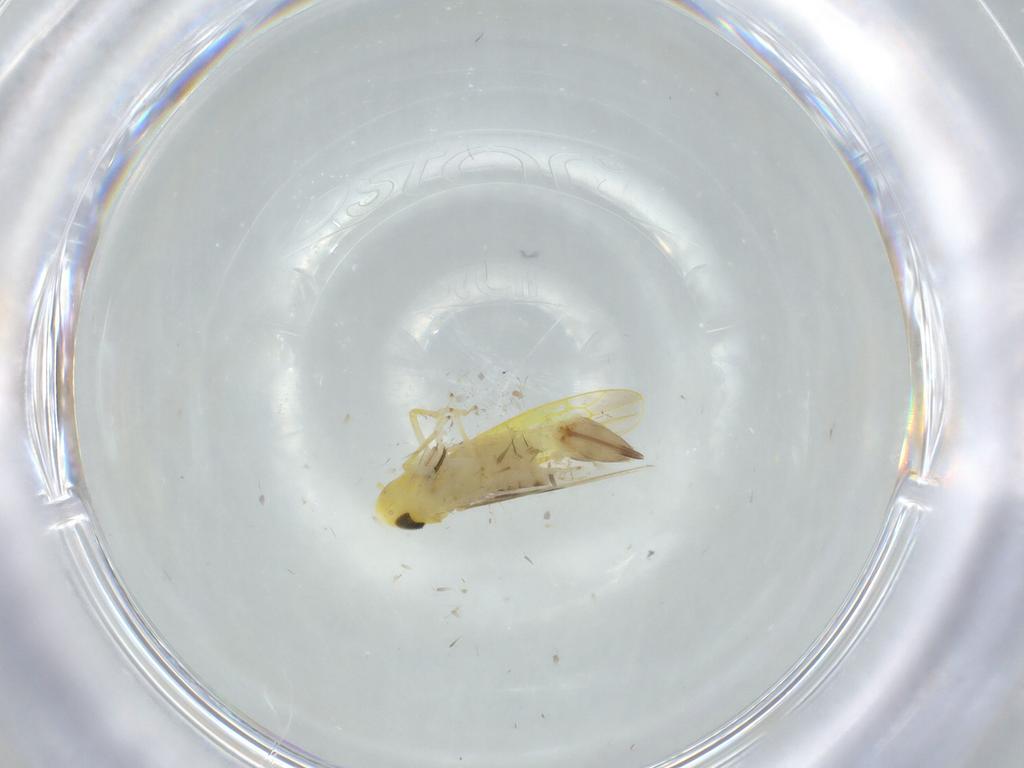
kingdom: Animalia
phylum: Arthropoda
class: Insecta
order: Hemiptera
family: Cicadellidae
